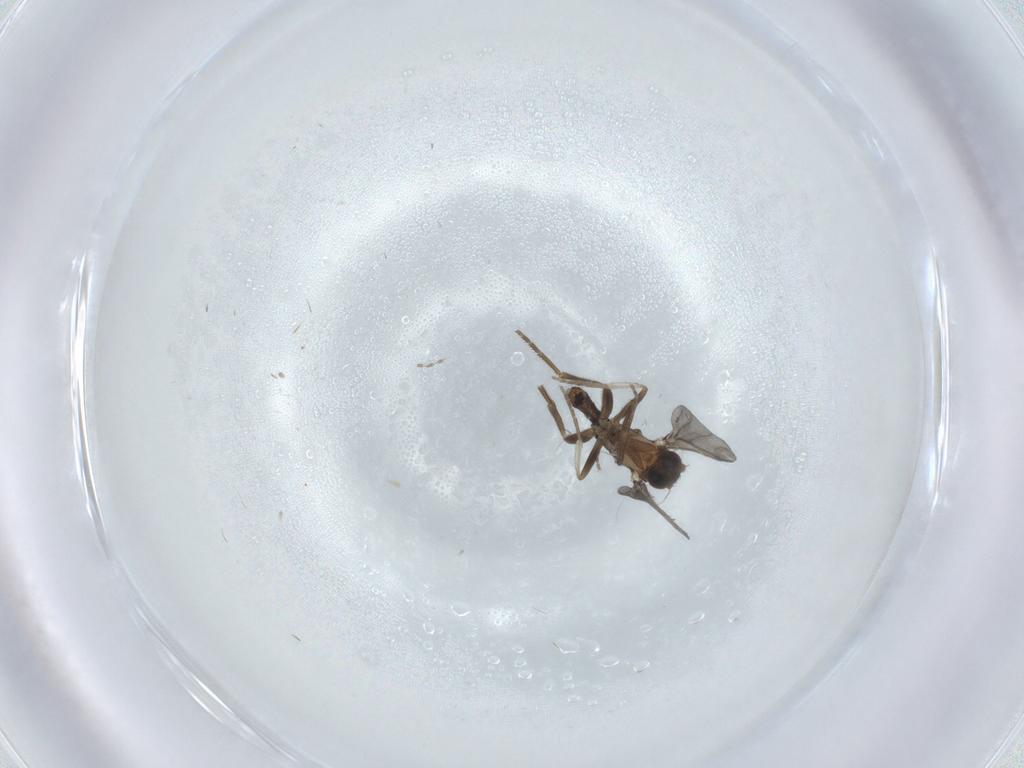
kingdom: Animalia
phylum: Arthropoda
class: Insecta
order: Diptera
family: Phoridae
